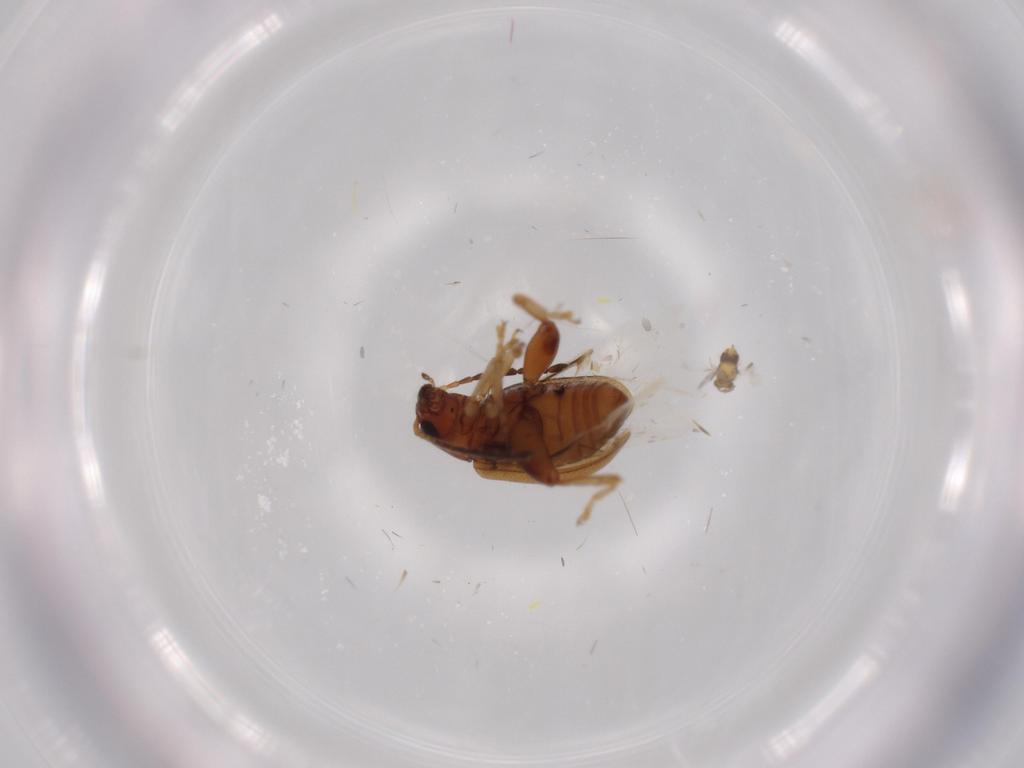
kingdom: Animalia
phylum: Arthropoda
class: Insecta
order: Coleoptera
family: Chrysomelidae
